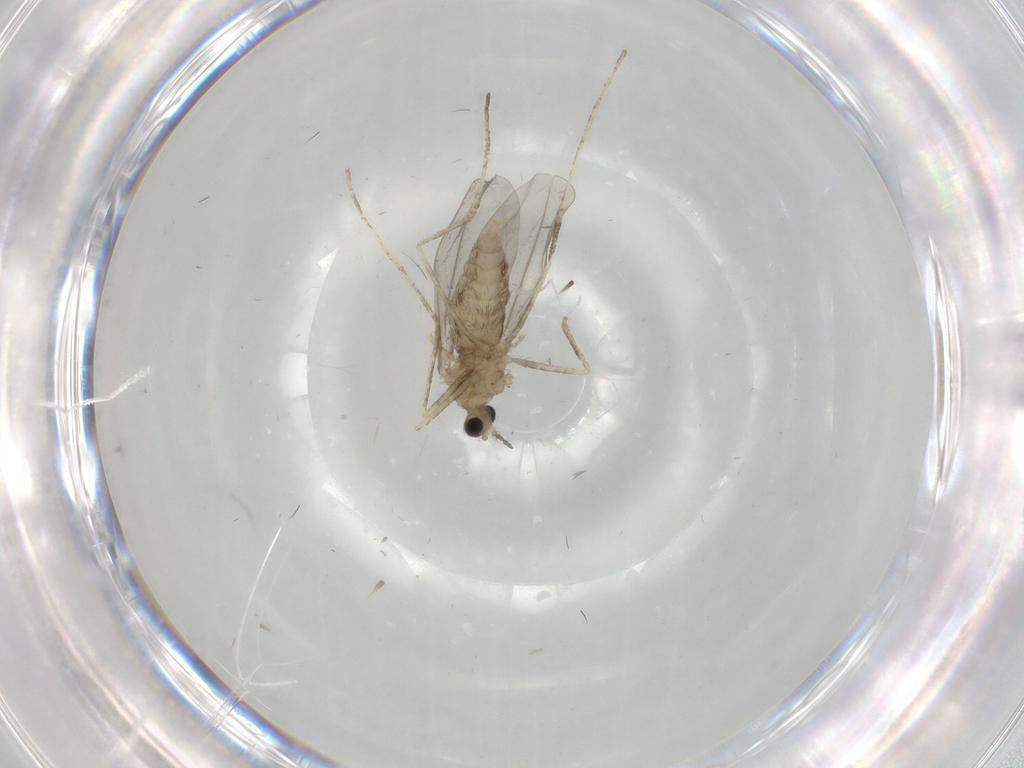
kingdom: Animalia
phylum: Arthropoda
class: Insecta
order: Diptera
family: Cecidomyiidae
